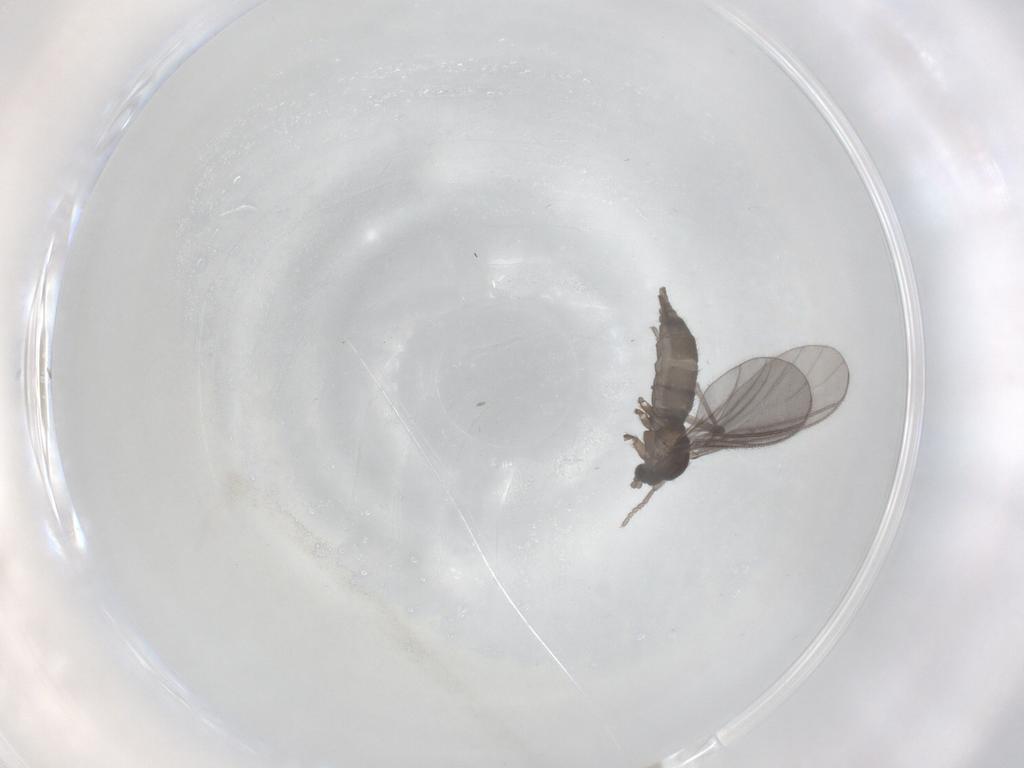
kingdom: Animalia
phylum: Arthropoda
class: Insecta
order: Diptera
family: Sciaridae
